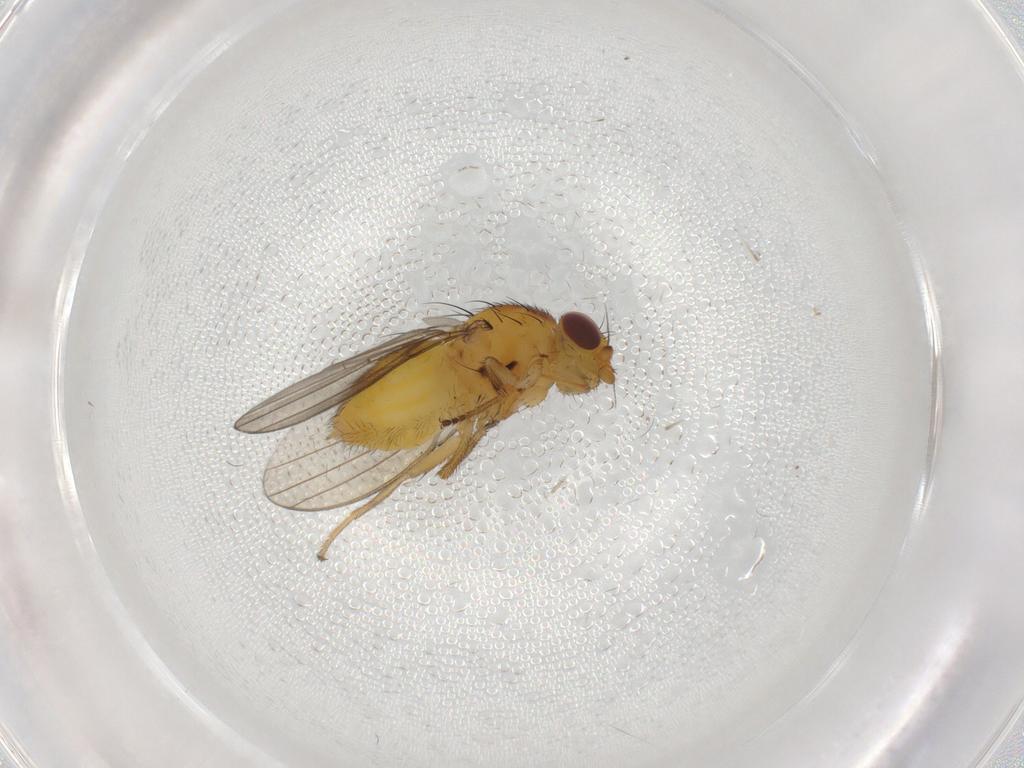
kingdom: Animalia
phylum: Arthropoda
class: Insecta
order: Diptera
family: Milichiidae
